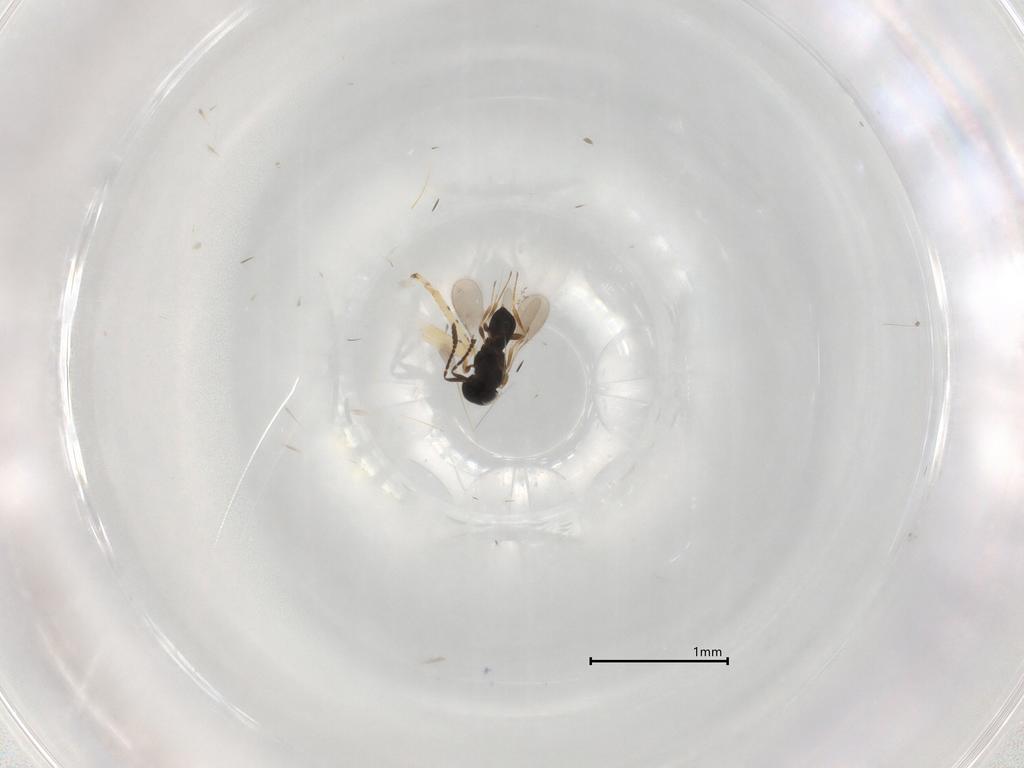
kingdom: Animalia
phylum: Arthropoda
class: Insecta
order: Hymenoptera
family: Scelionidae
